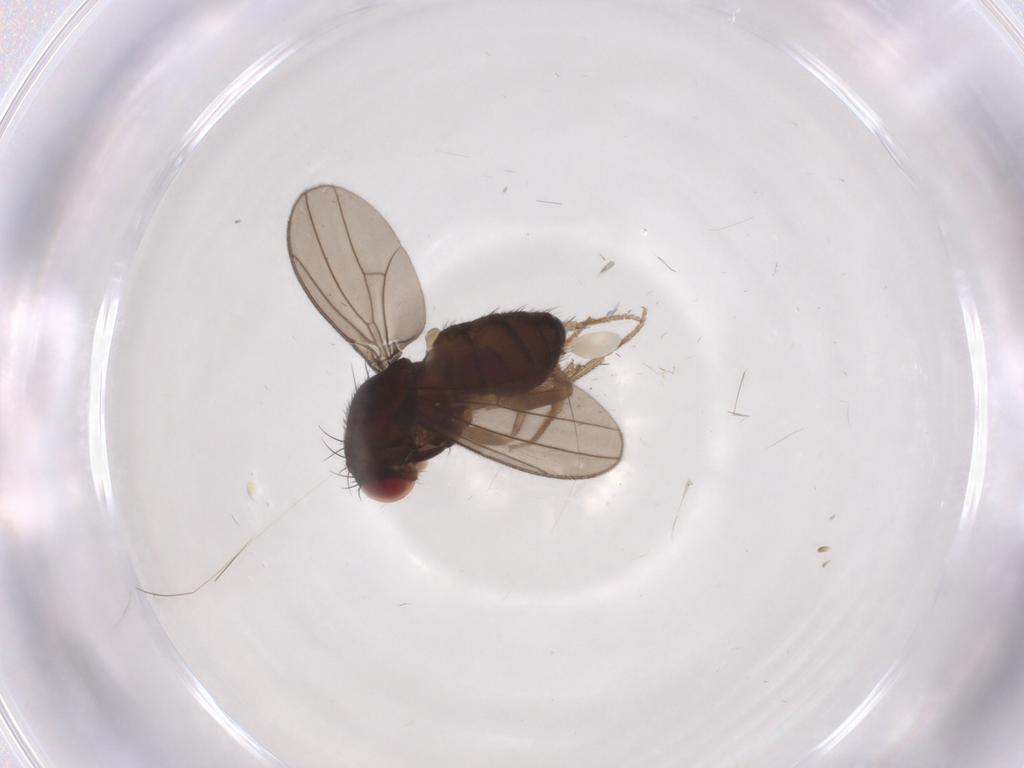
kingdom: Animalia
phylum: Arthropoda
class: Insecta
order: Diptera
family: Drosophilidae
